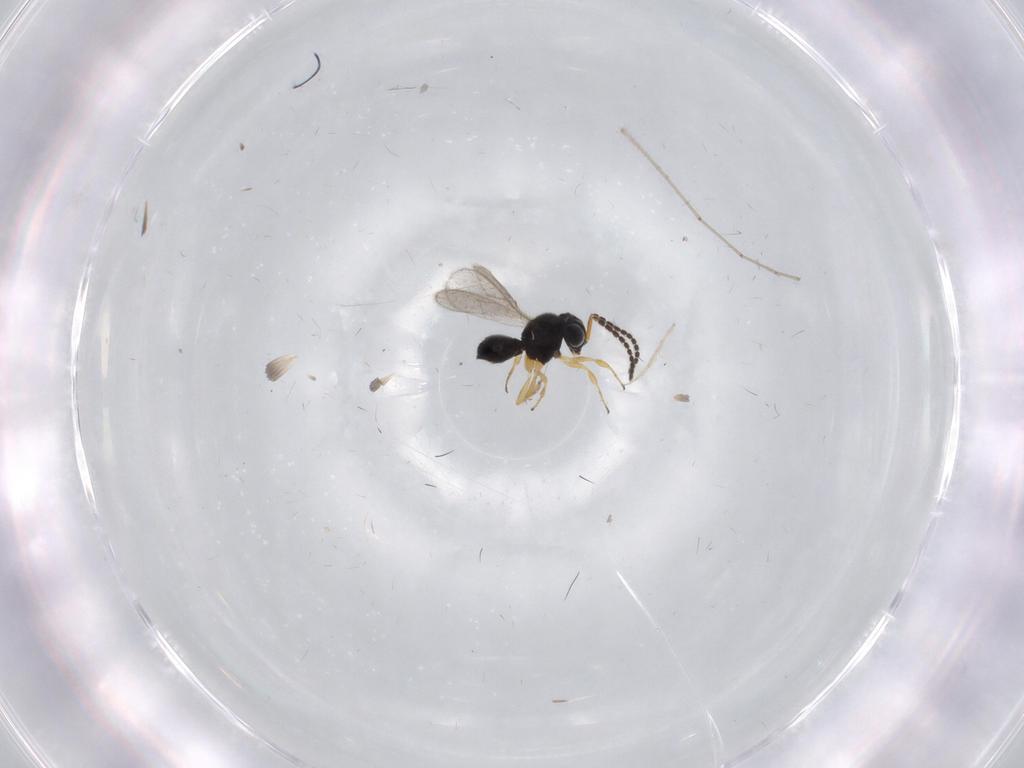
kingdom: Animalia
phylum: Arthropoda
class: Insecta
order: Hymenoptera
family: Scelionidae
